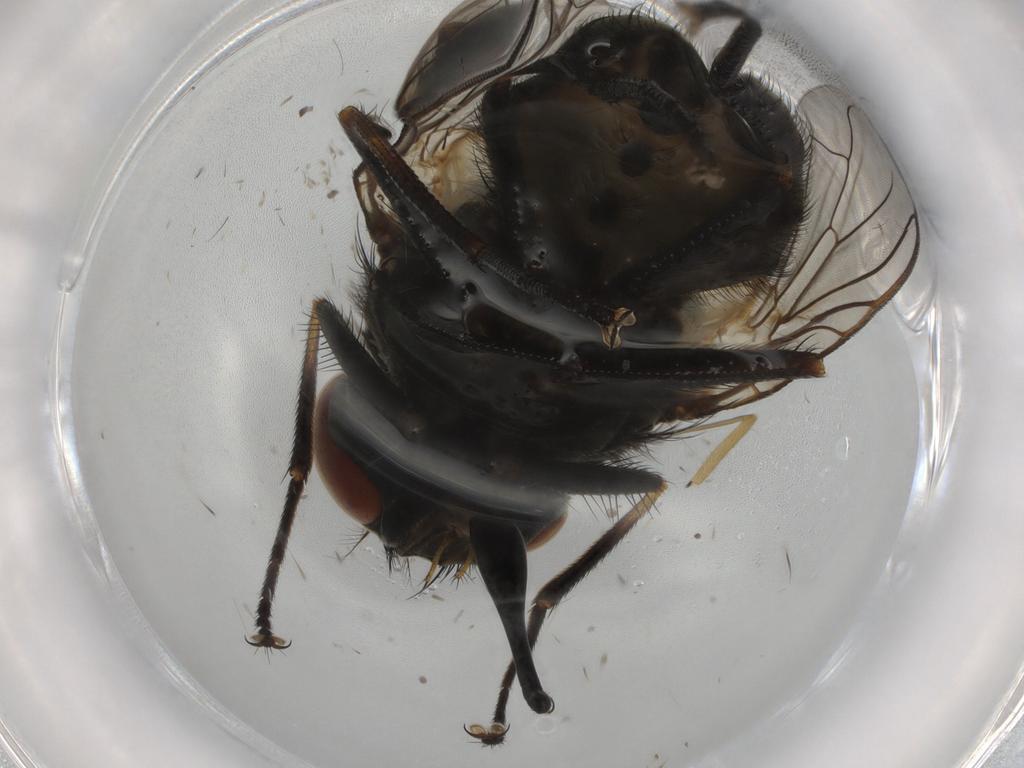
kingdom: Animalia
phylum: Arthropoda
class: Insecta
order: Diptera
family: Muscidae
